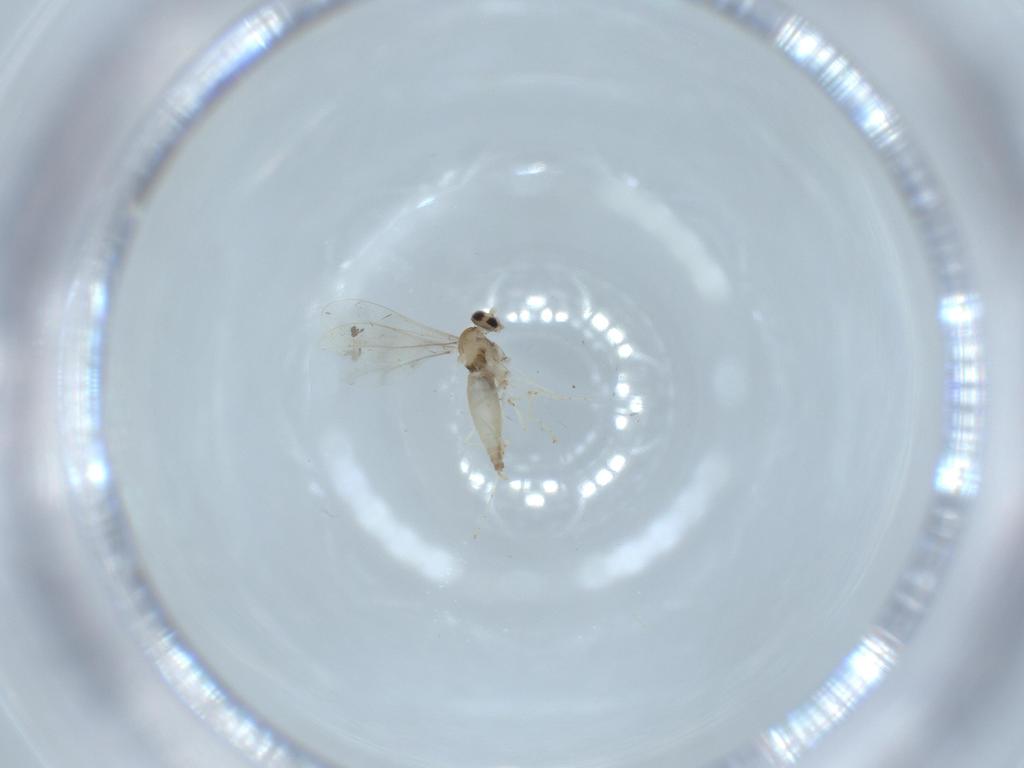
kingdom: Animalia
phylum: Arthropoda
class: Insecta
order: Diptera
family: Cecidomyiidae
